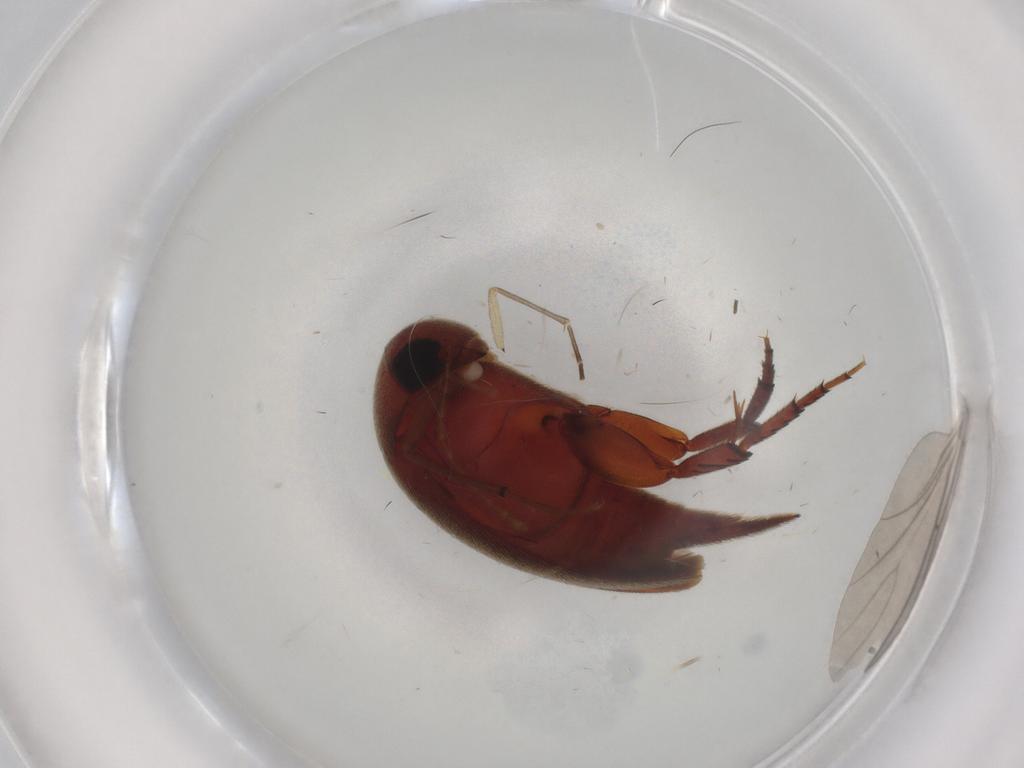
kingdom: Animalia
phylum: Arthropoda
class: Insecta
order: Coleoptera
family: Cantharidae
